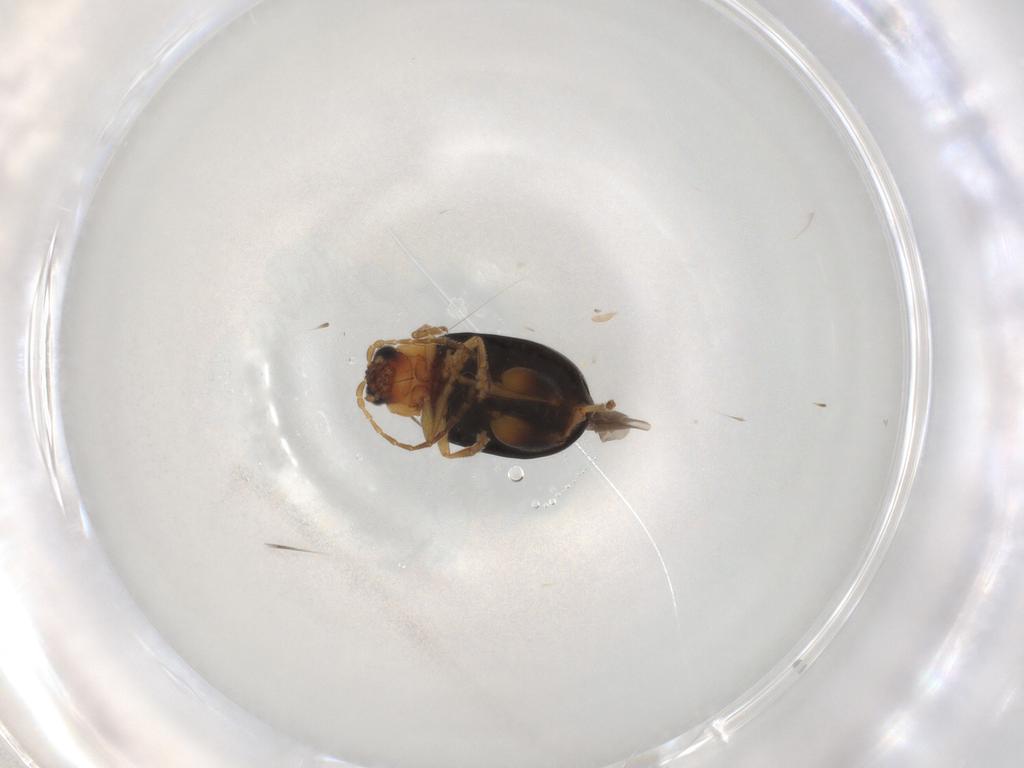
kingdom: Animalia
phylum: Arthropoda
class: Insecta
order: Coleoptera
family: Chrysomelidae
